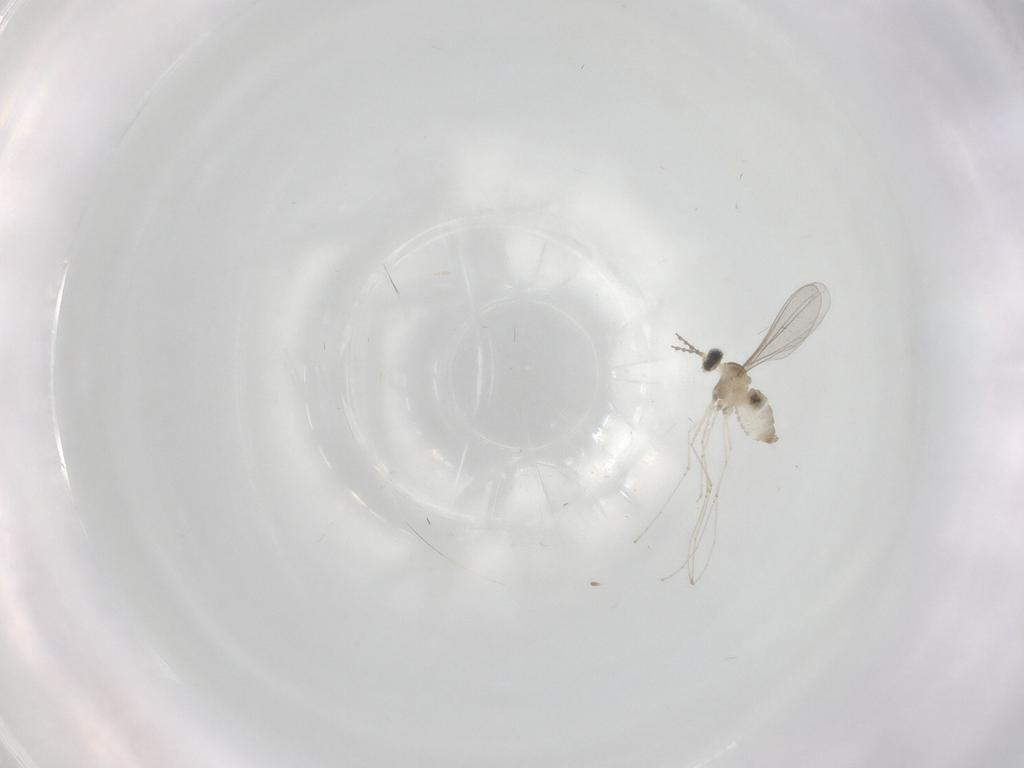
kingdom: Animalia
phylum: Arthropoda
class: Insecta
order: Diptera
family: Cecidomyiidae
